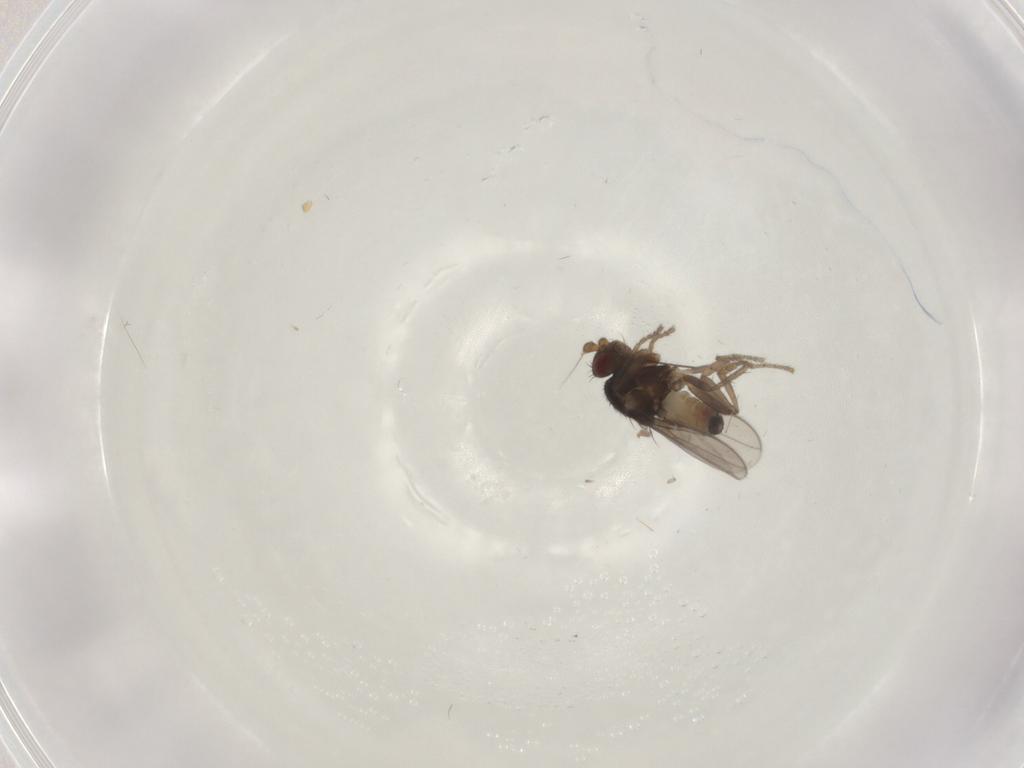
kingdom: Animalia
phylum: Arthropoda
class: Insecta
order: Diptera
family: Sphaeroceridae
